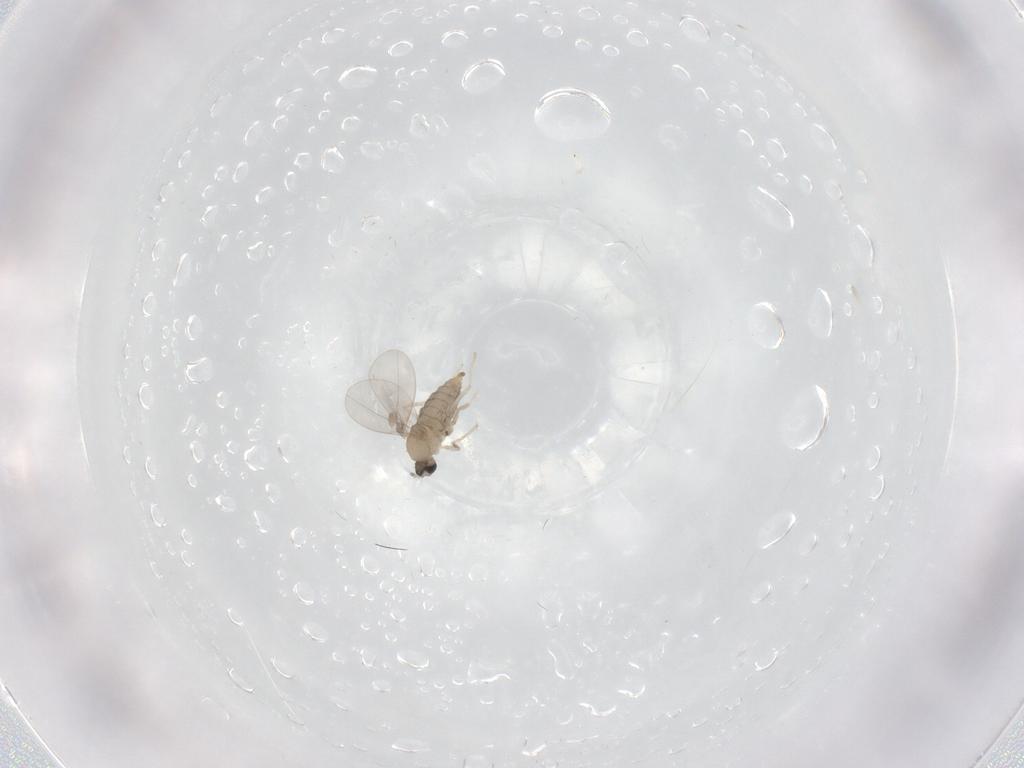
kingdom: Animalia
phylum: Arthropoda
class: Insecta
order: Diptera
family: Cecidomyiidae
